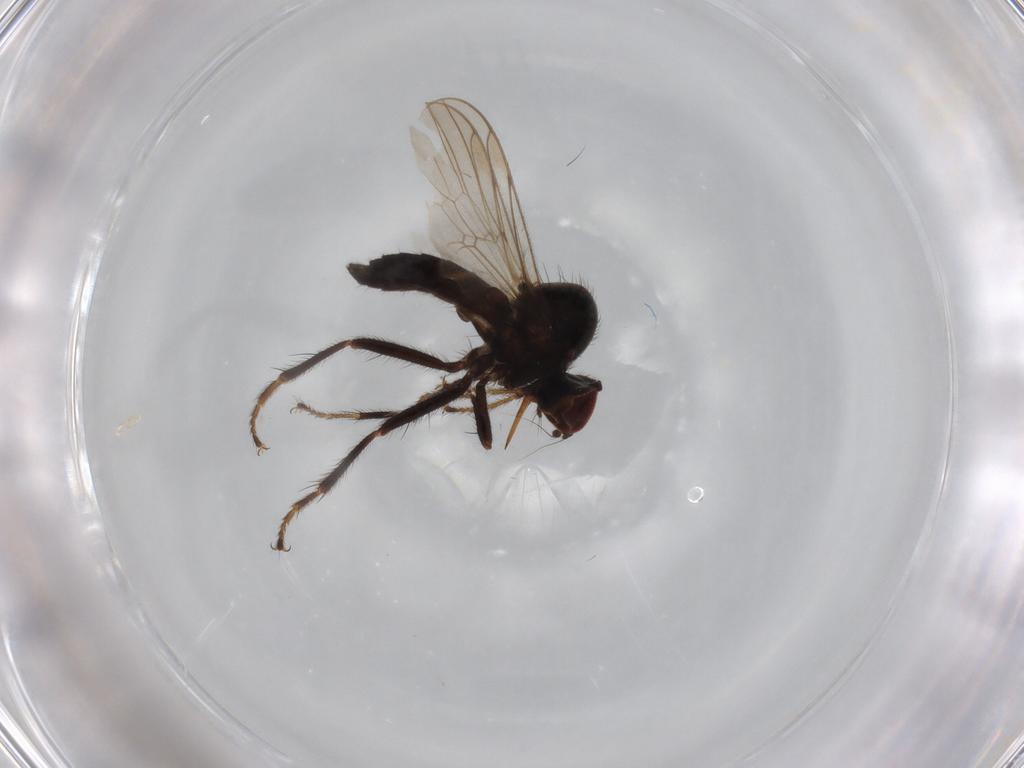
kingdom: Animalia
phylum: Arthropoda
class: Insecta
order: Diptera
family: Hybotidae
